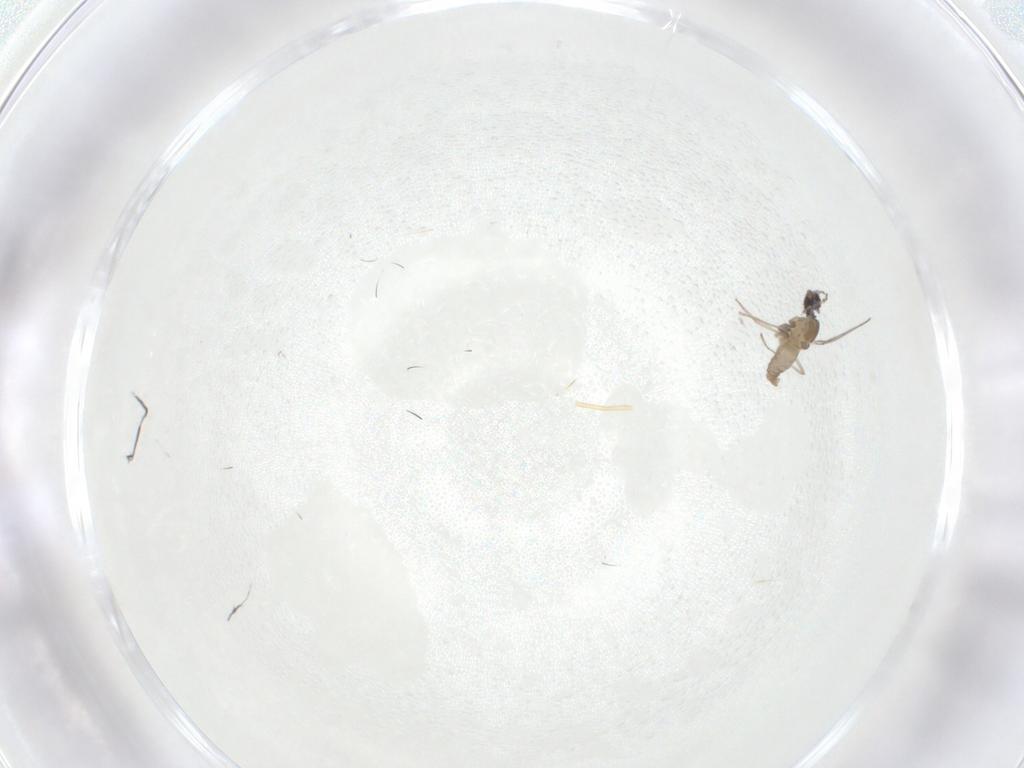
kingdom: Animalia
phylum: Arthropoda
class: Insecta
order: Diptera
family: Cecidomyiidae
